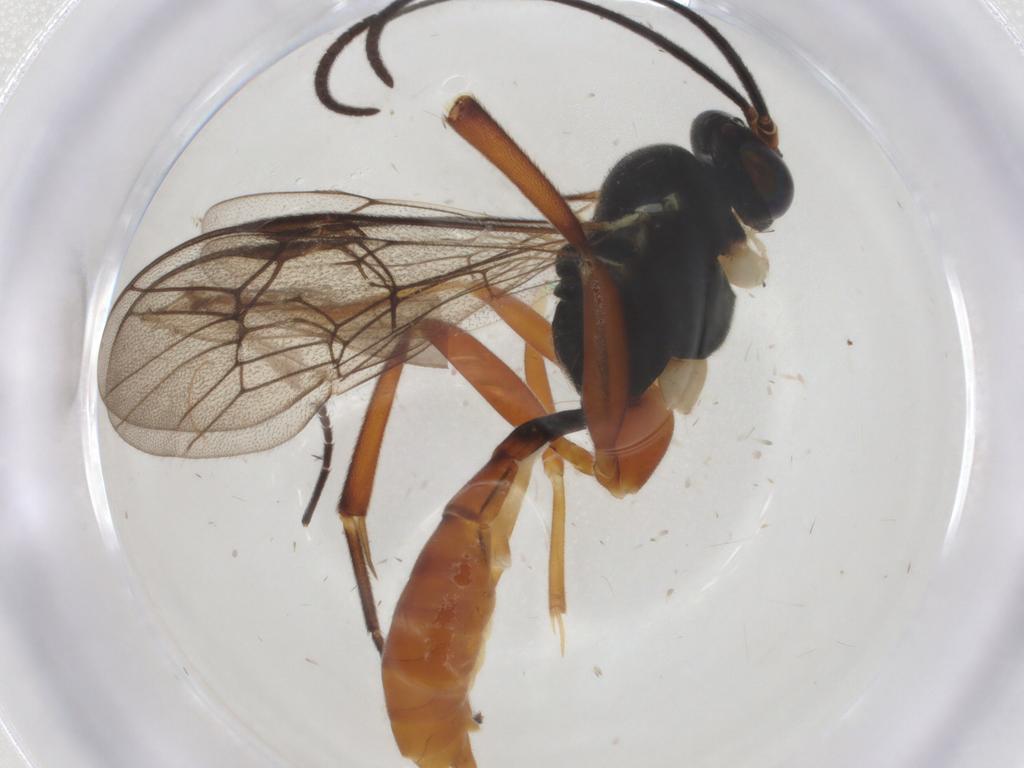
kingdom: Animalia
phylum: Arthropoda
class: Insecta
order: Hymenoptera
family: Ichneumonidae
